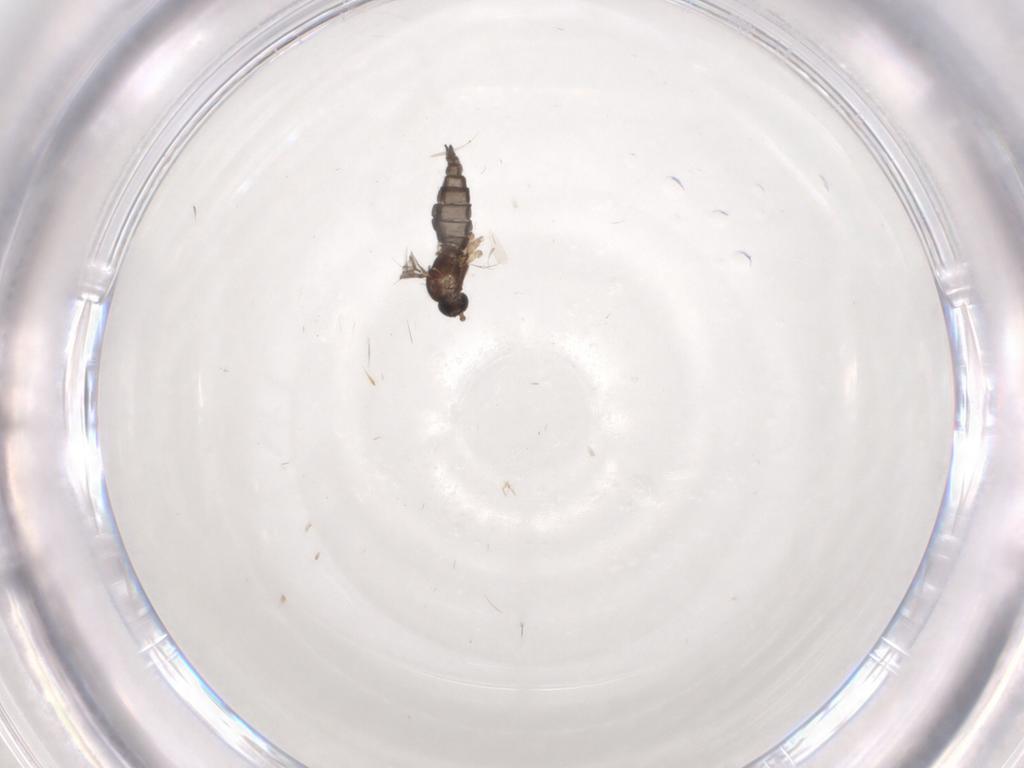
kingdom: Animalia
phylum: Arthropoda
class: Insecta
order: Diptera
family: Sciaridae
